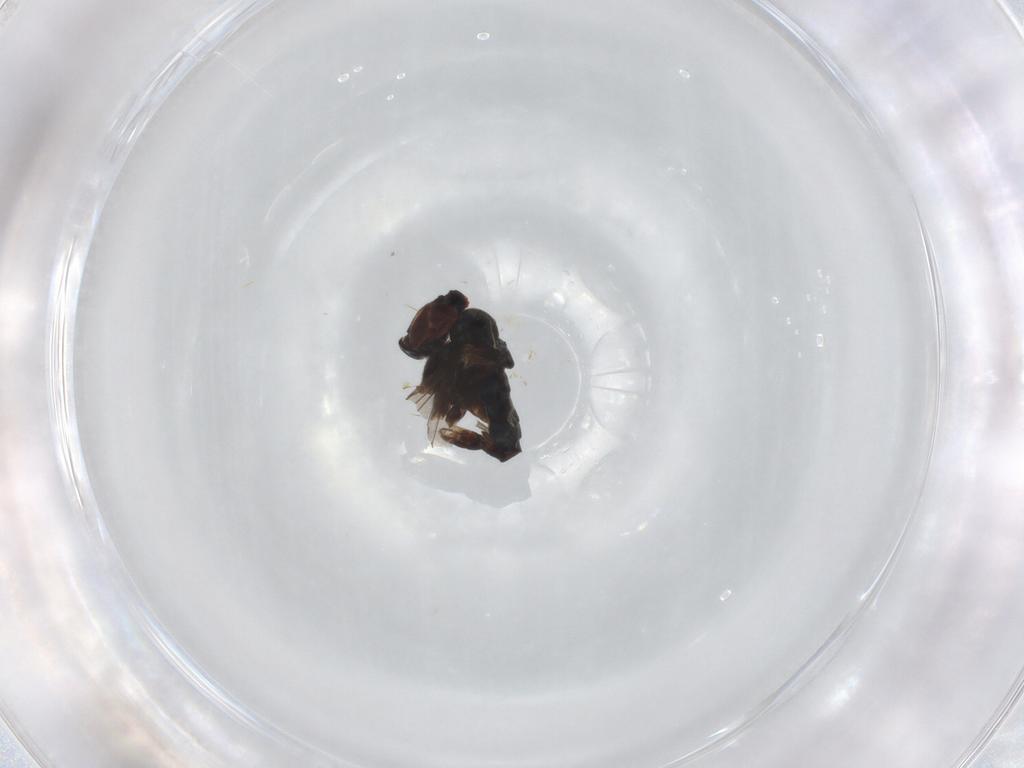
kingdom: Animalia
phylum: Arthropoda
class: Insecta
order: Diptera
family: Dolichopodidae
